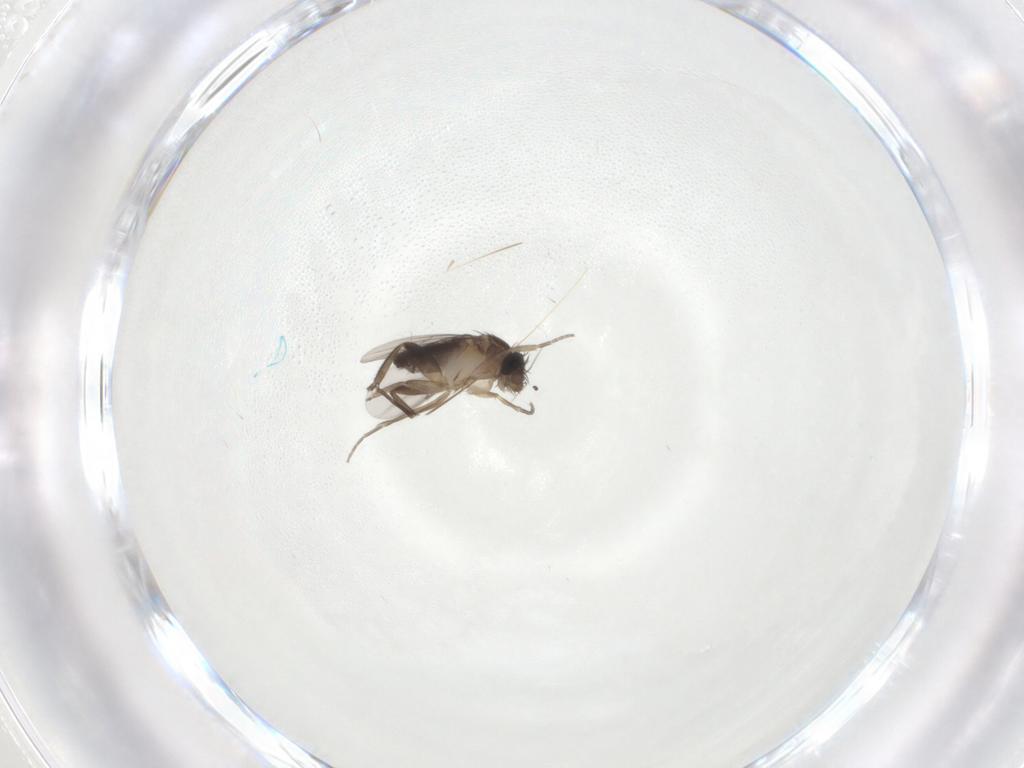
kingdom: Animalia
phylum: Arthropoda
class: Insecta
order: Diptera
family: Phoridae
